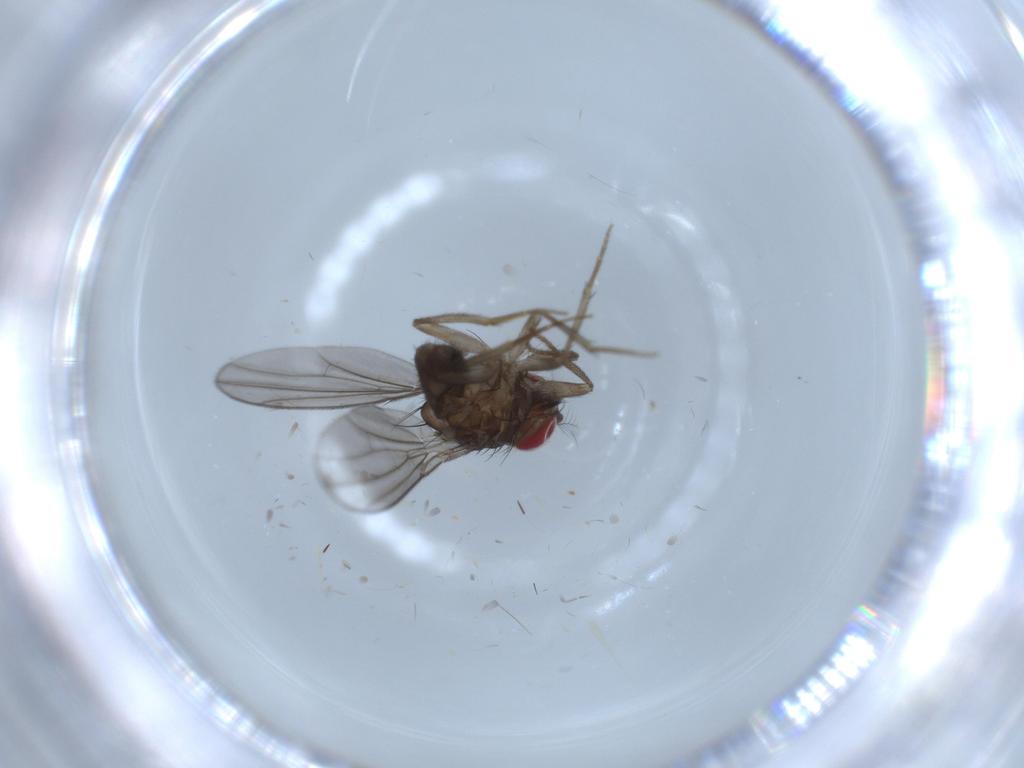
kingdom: Animalia
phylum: Arthropoda
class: Insecta
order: Diptera
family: Drosophilidae
